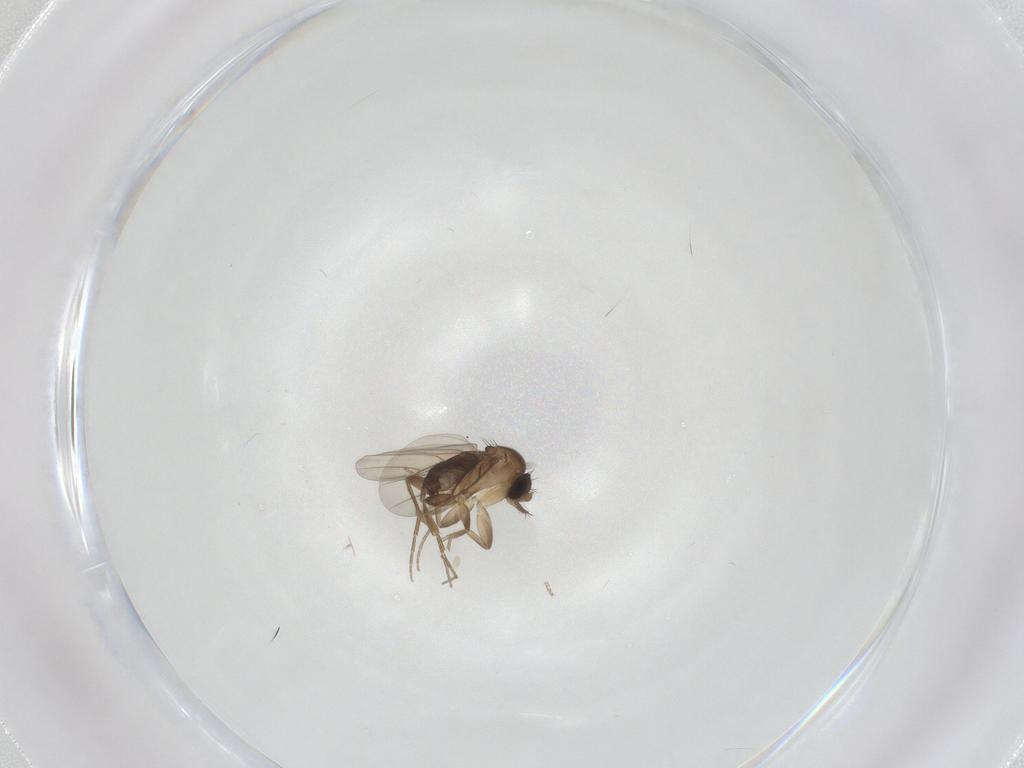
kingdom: Animalia
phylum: Arthropoda
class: Insecta
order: Diptera
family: Phoridae
